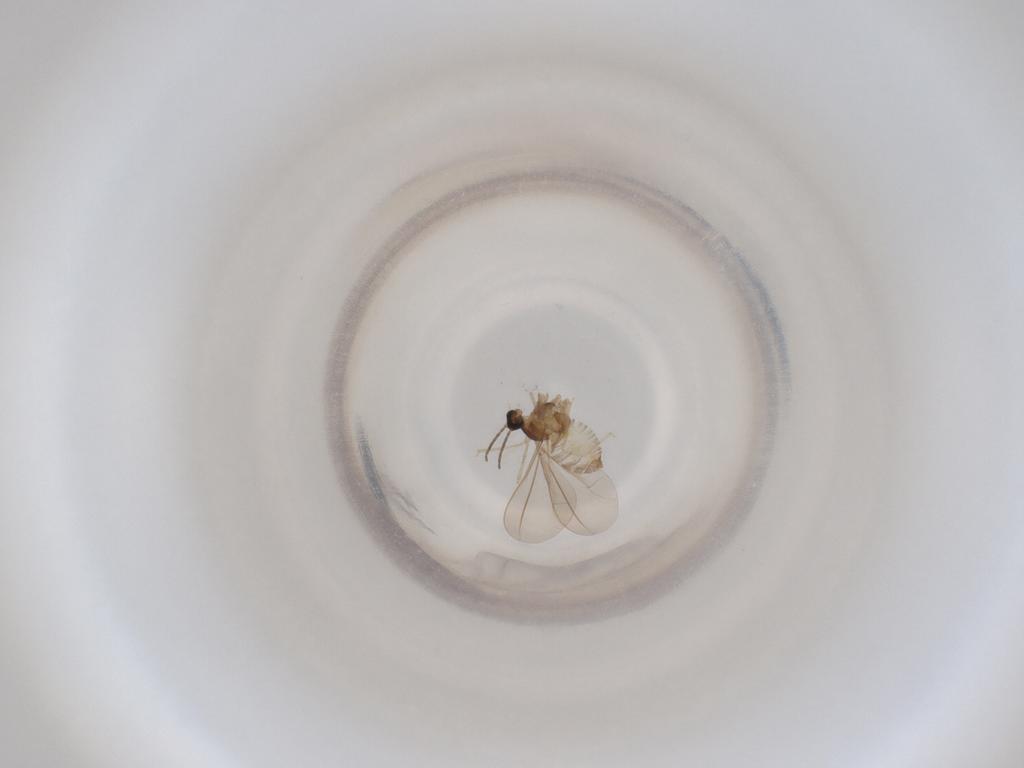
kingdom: Animalia
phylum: Arthropoda
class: Insecta
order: Diptera
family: Cecidomyiidae
